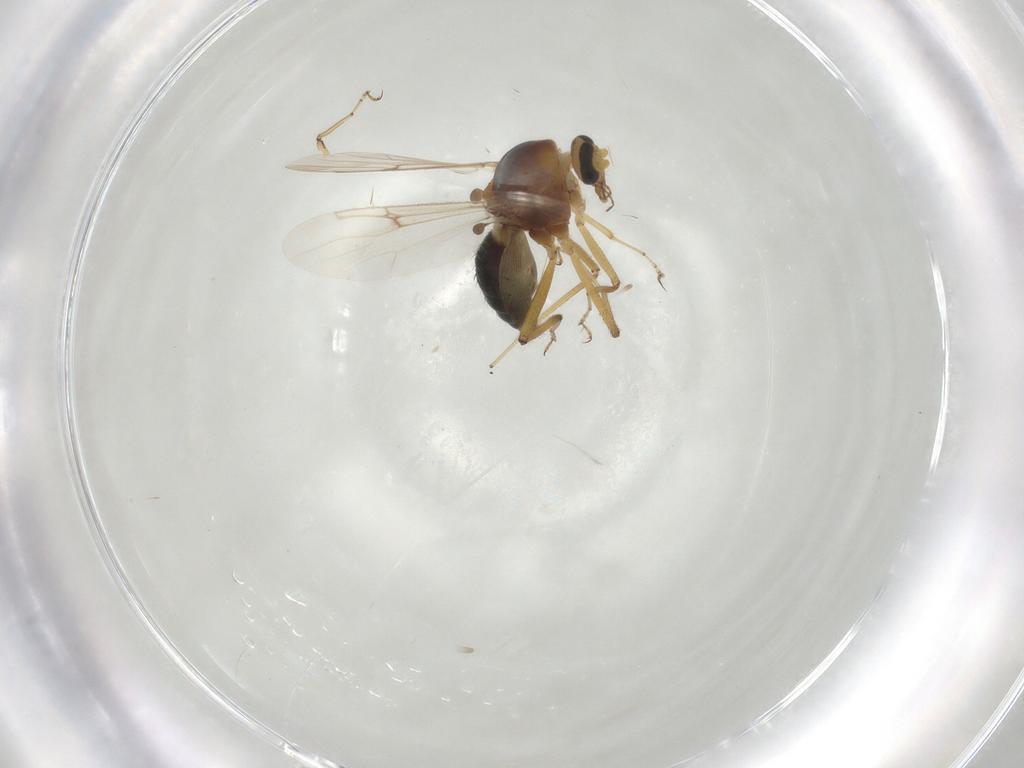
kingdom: Animalia
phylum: Arthropoda
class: Insecta
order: Diptera
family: Ceratopogonidae
